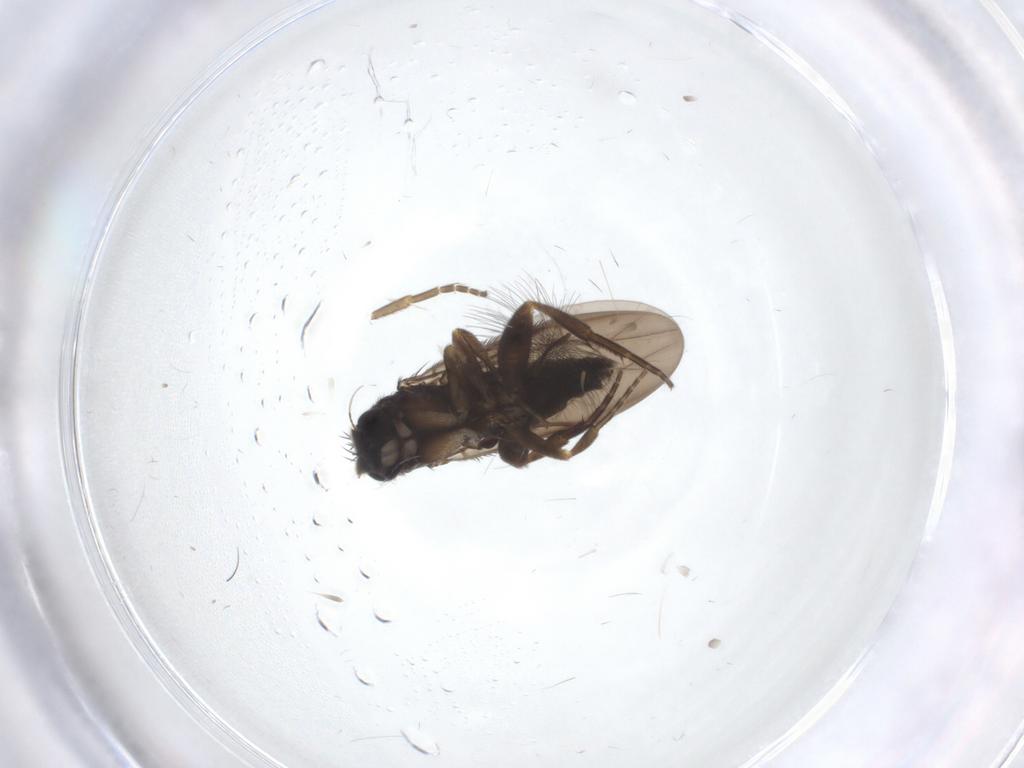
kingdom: Animalia
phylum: Arthropoda
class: Insecta
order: Diptera
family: Phoridae
